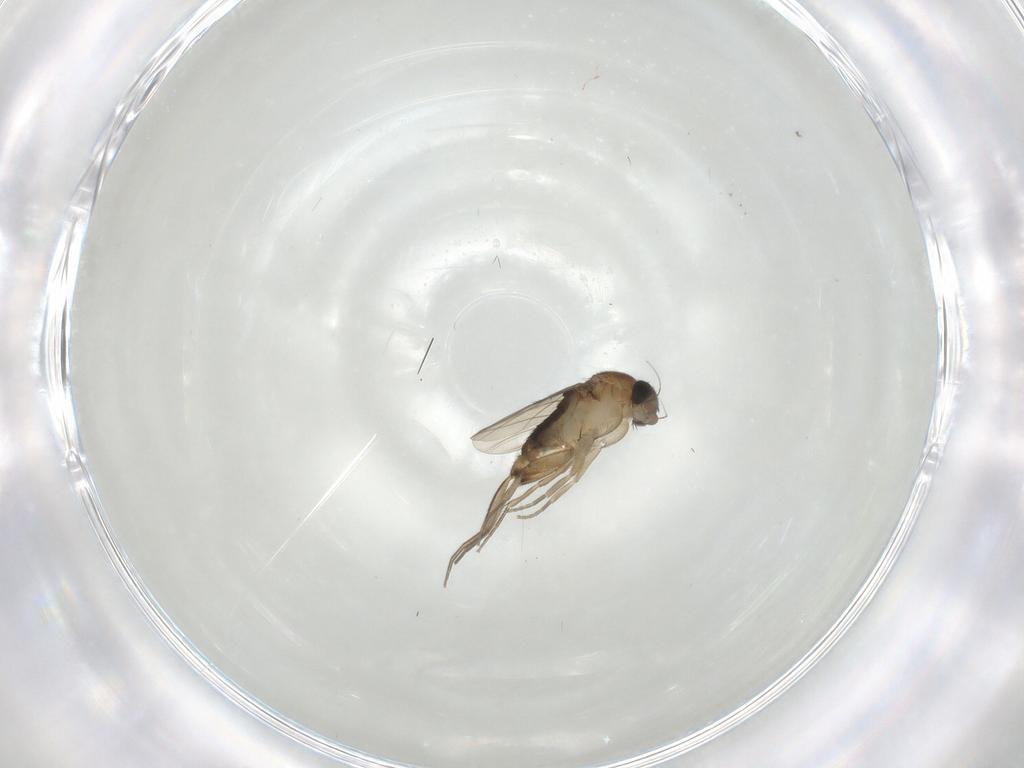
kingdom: Animalia
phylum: Arthropoda
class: Insecta
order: Diptera
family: Phoridae
